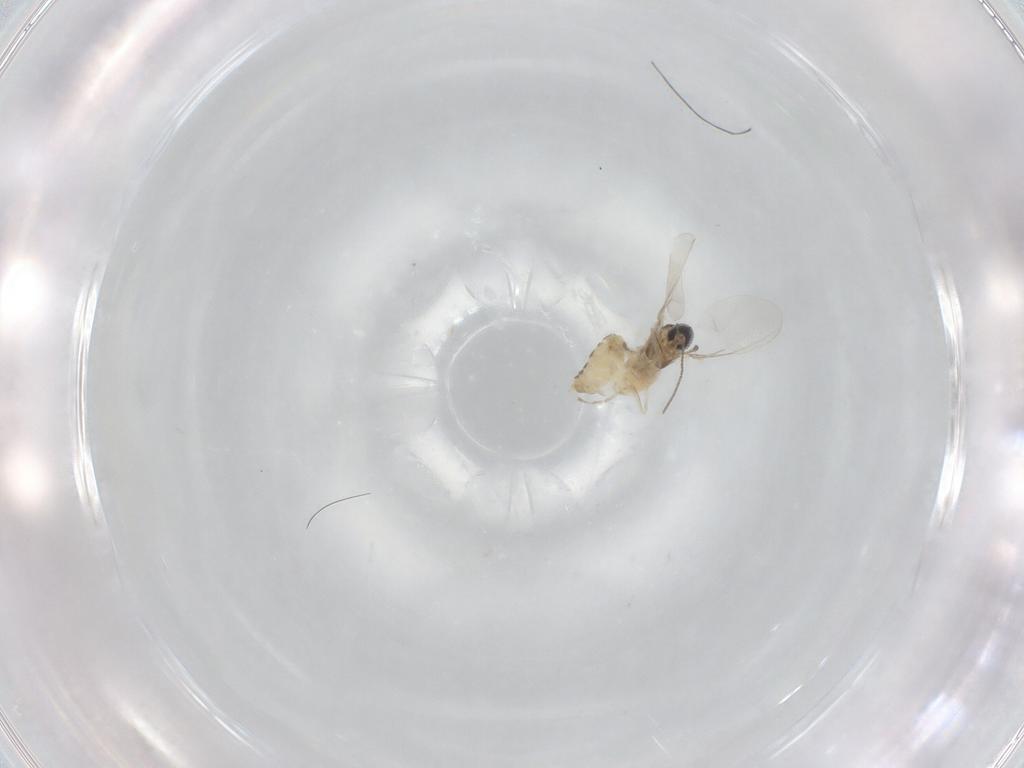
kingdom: Animalia
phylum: Arthropoda
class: Insecta
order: Diptera
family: Cecidomyiidae
